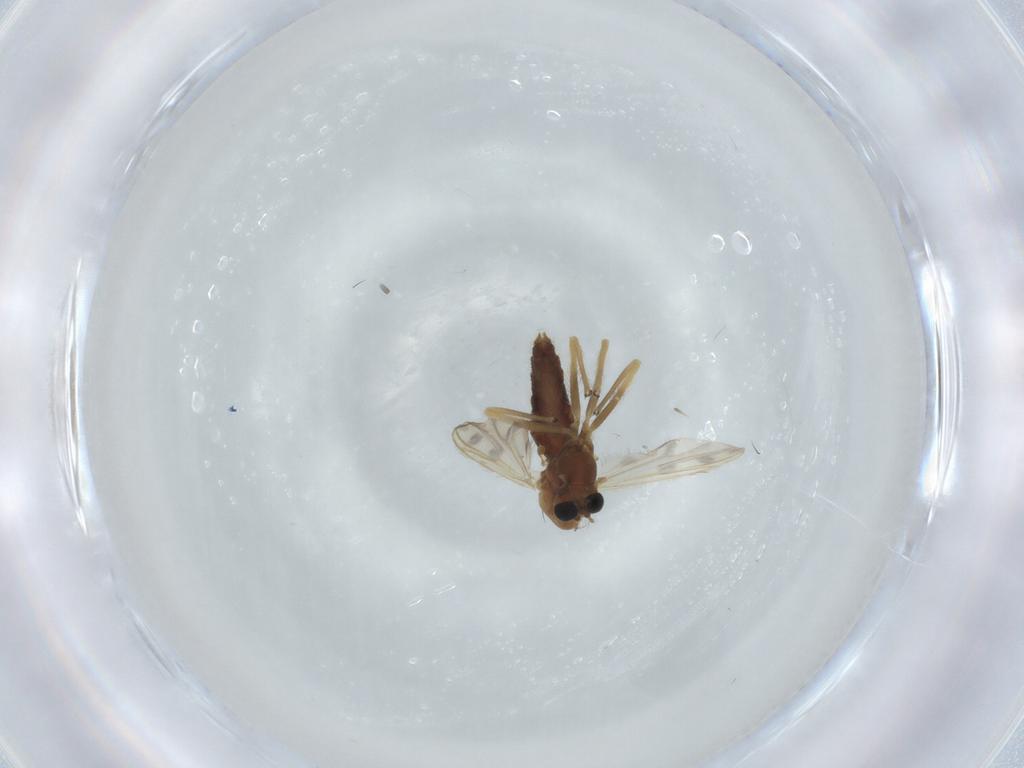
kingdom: Animalia
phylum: Arthropoda
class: Insecta
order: Diptera
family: Chironomidae
